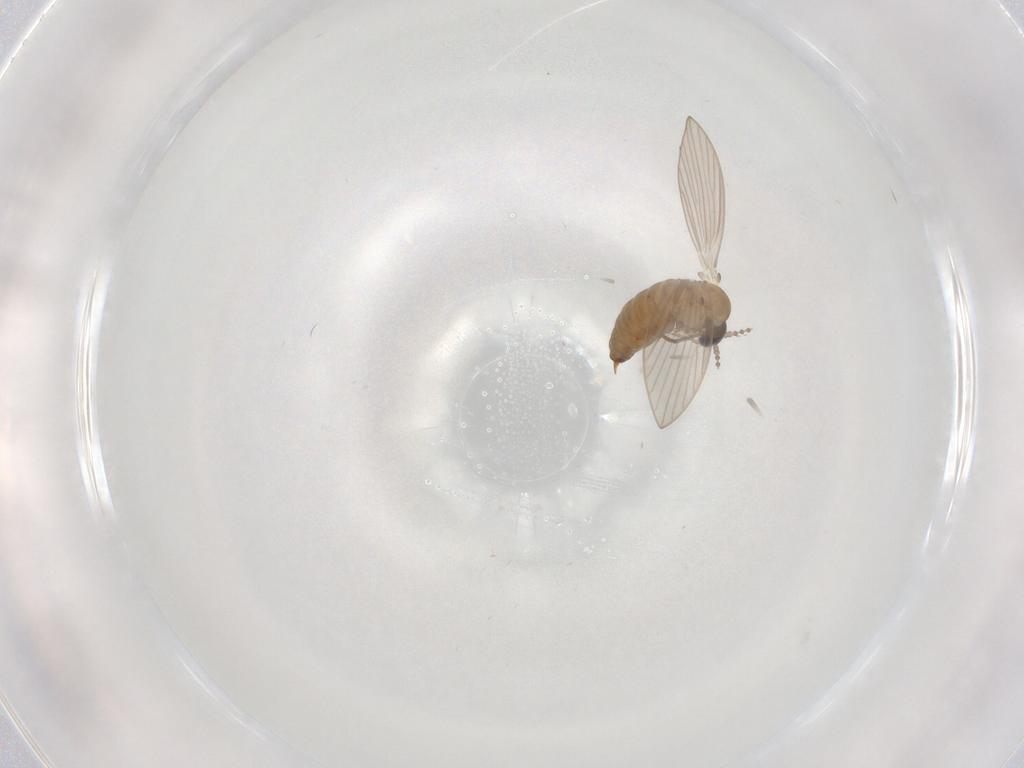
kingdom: Animalia
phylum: Arthropoda
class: Insecta
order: Diptera
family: Psychodidae
